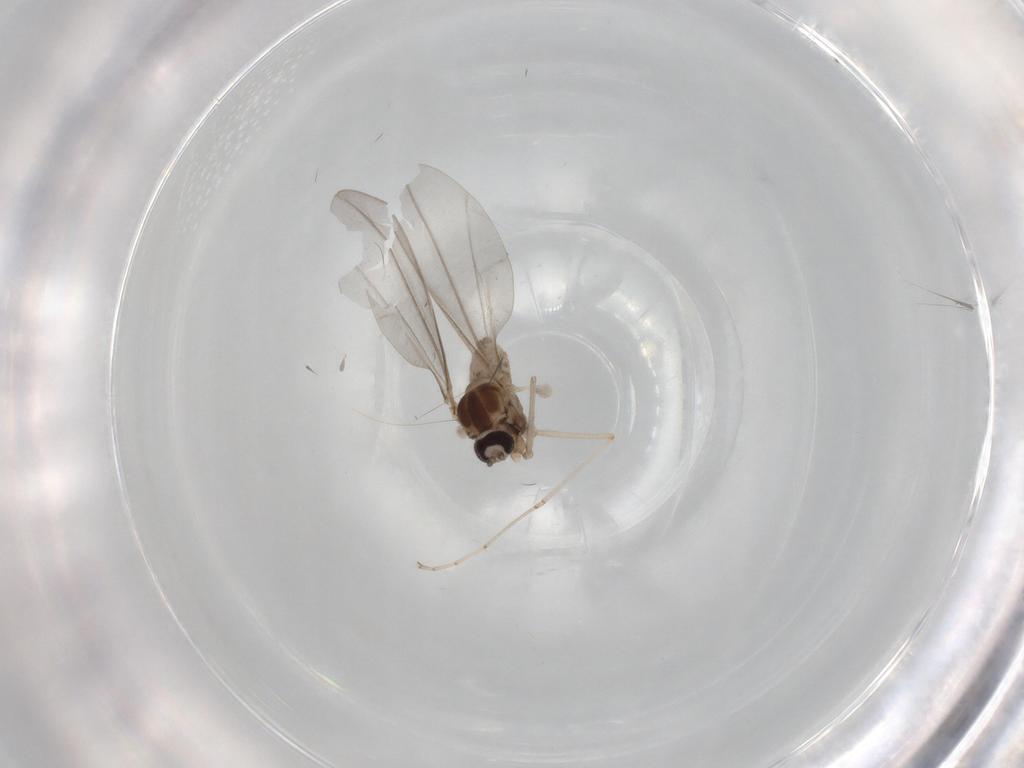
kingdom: Animalia
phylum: Arthropoda
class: Insecta
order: Diptera
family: Cecidomyiidae
